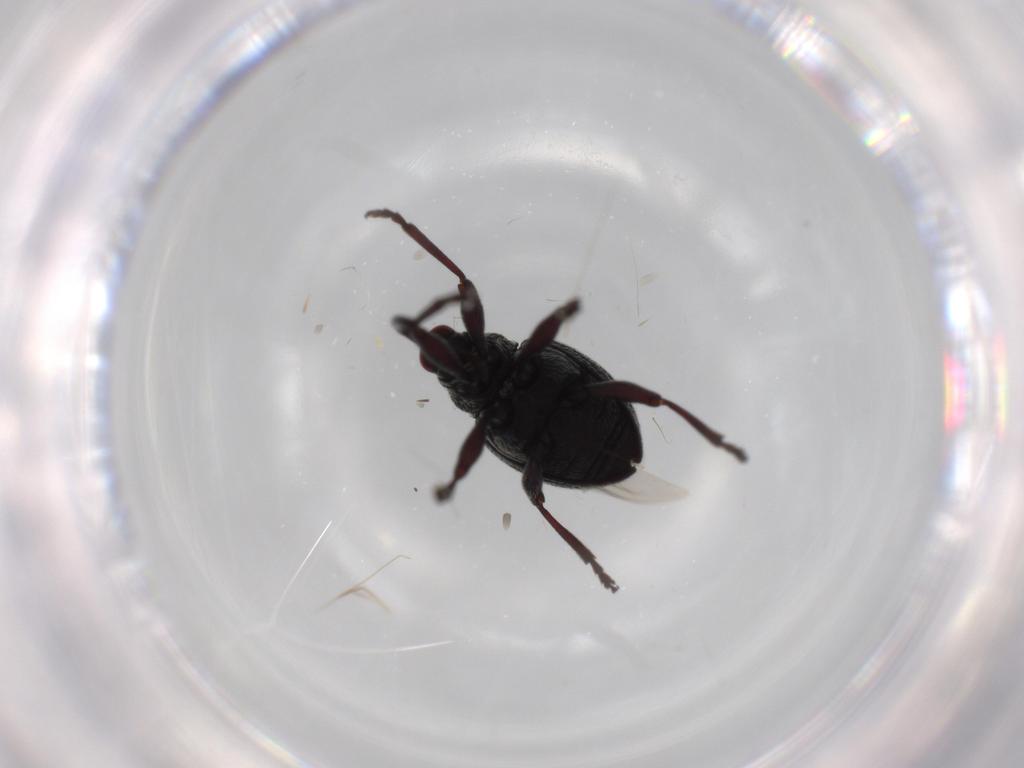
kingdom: Animalia
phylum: Arthropoda
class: Insecta
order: Coleoptera
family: Brentidae
